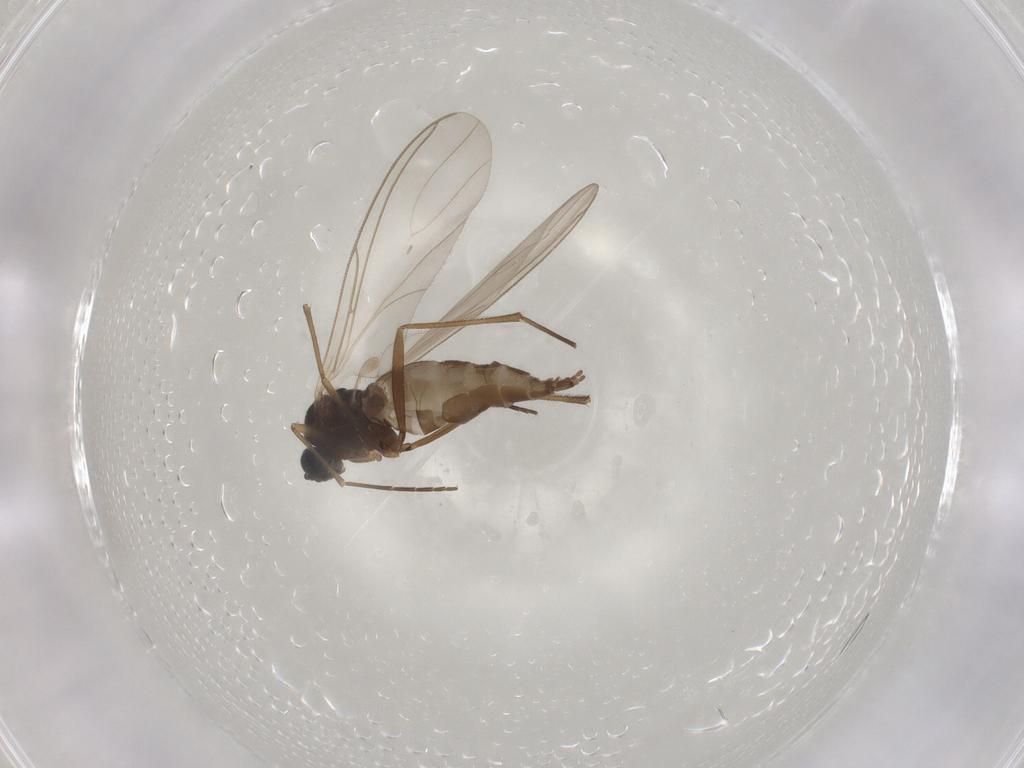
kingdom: Animalia
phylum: Arthropoda
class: Insecta
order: Diptera
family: Sciaridae
